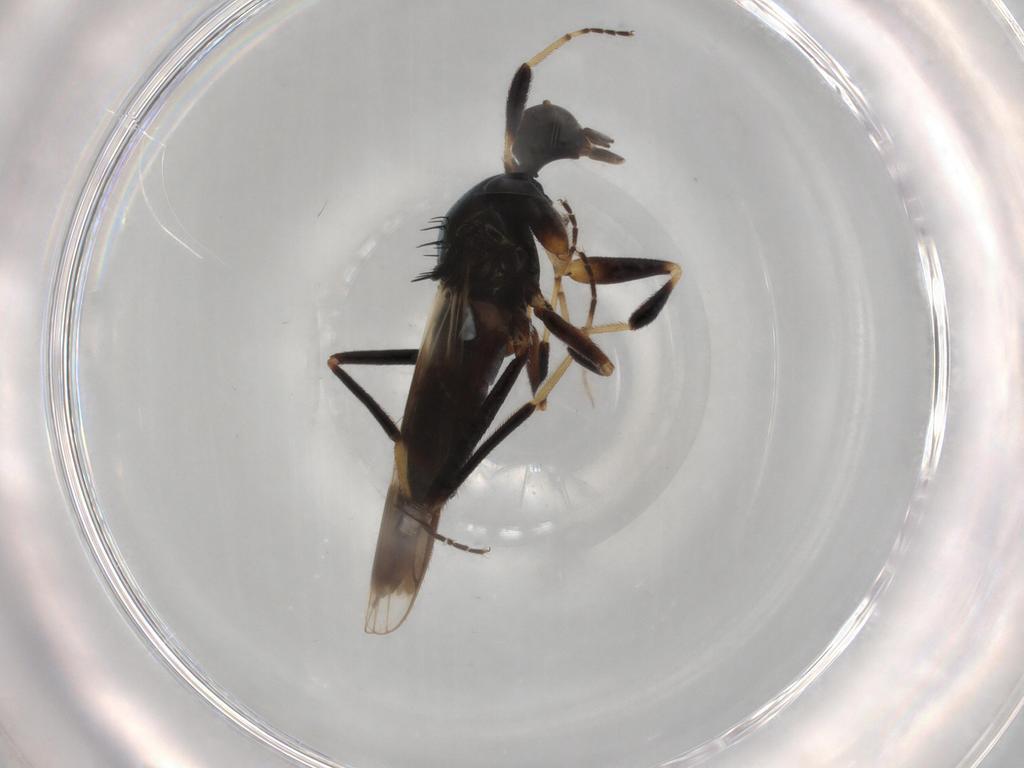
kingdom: Animalia
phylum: Arthropoda
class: Insecta
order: Diptera
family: Hybotidae
